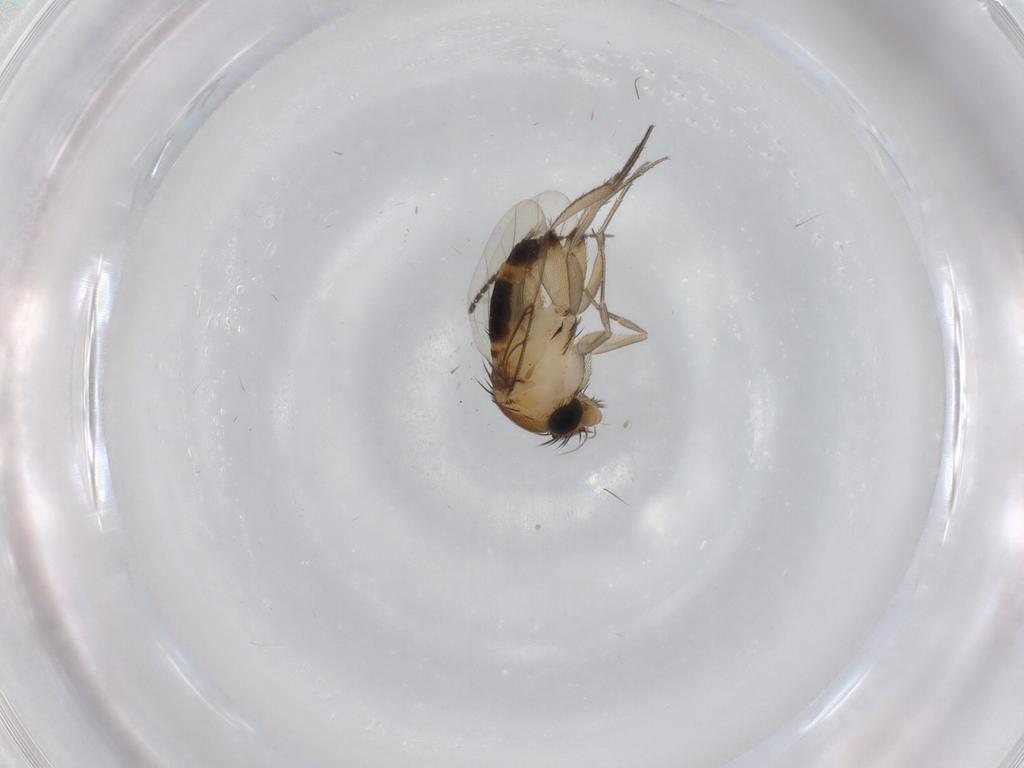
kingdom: Animalia
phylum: Arthropoda
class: Insecta
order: Diptera
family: Phoridae
